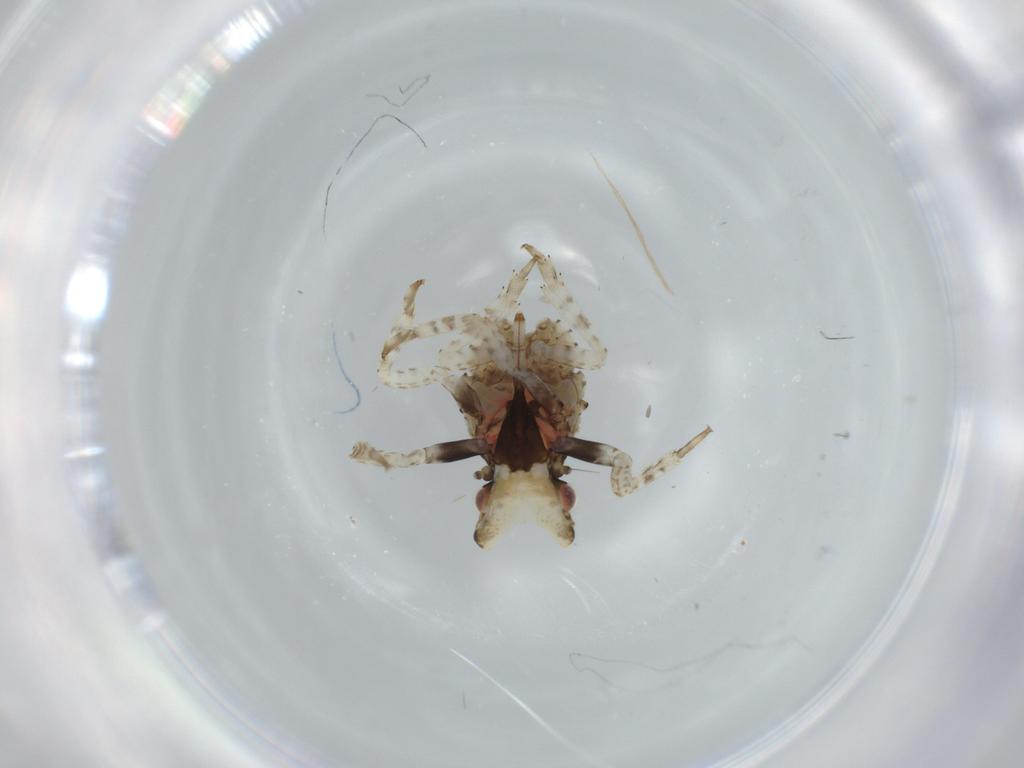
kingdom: Animalia
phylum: Arthropoda
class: Insecta
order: Hemiptera
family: Fulgoridae
